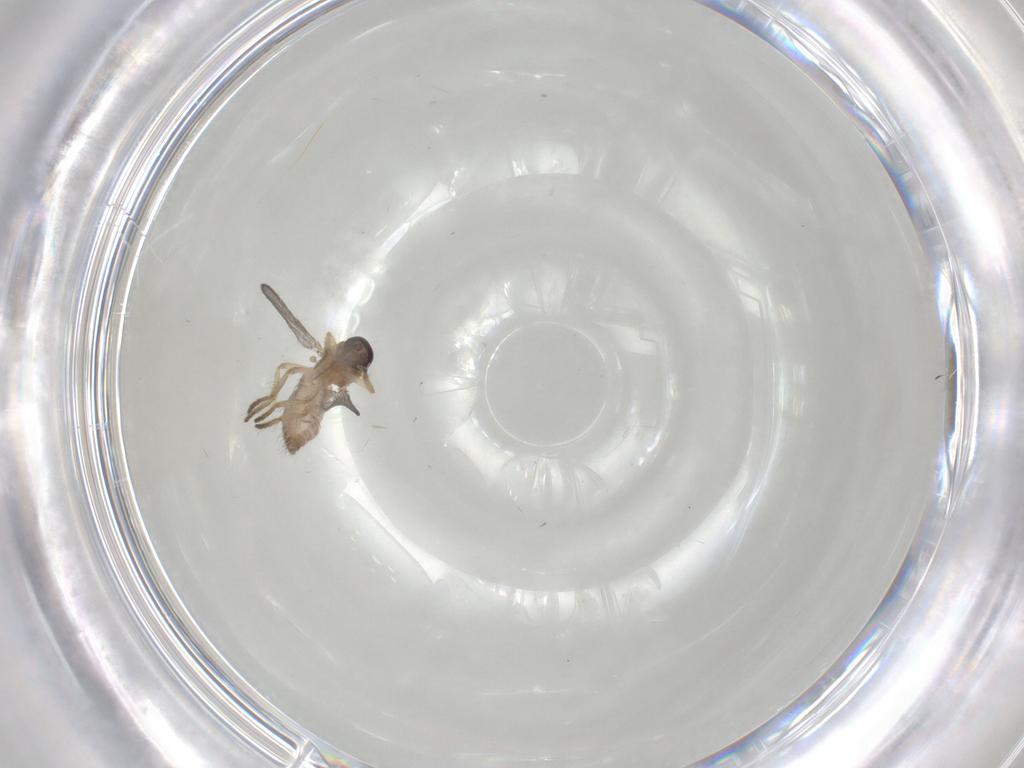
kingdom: Animalia
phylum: Arthropoda
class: Insecta
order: Diptera
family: Ceratopogonidae
